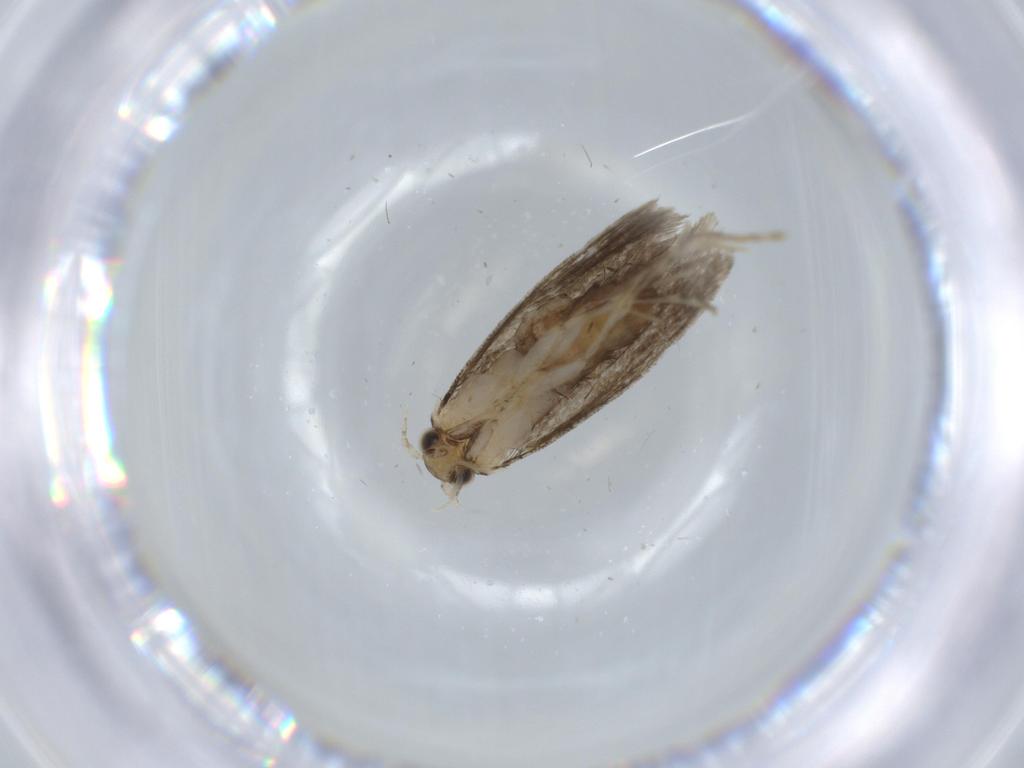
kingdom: Animalia
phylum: Arthropoda
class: Insecta
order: Lepidoptera
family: Tineidae
